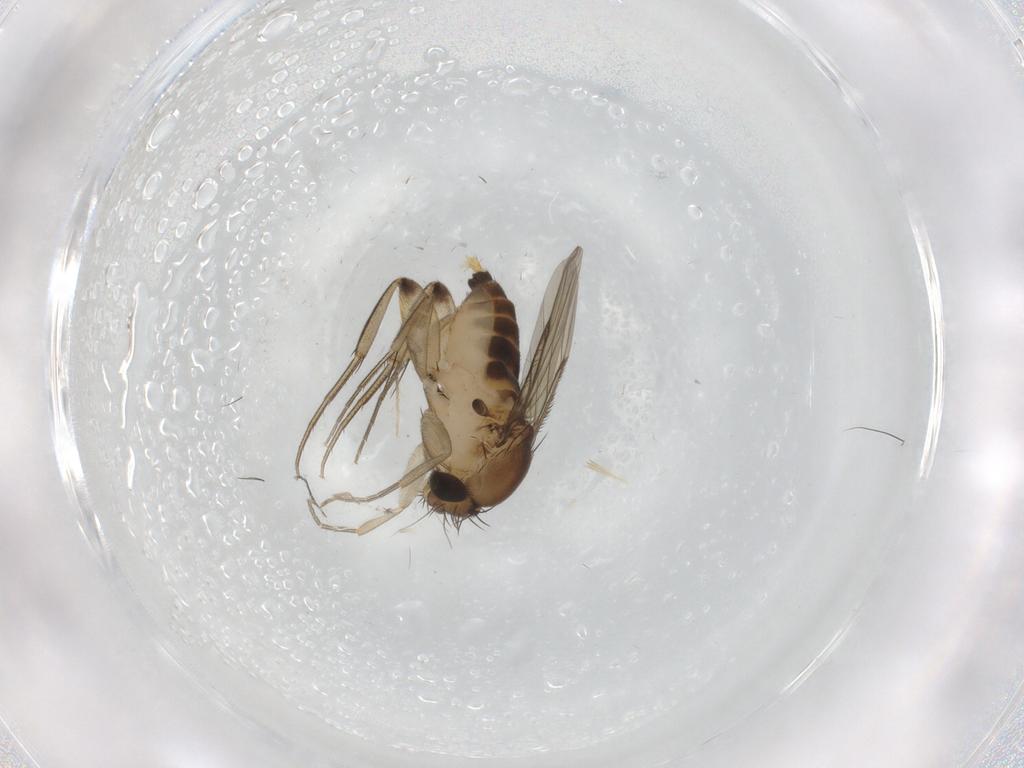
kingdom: Animalia
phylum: Arthropoda
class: Insecta
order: Diptera
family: Phoridae
